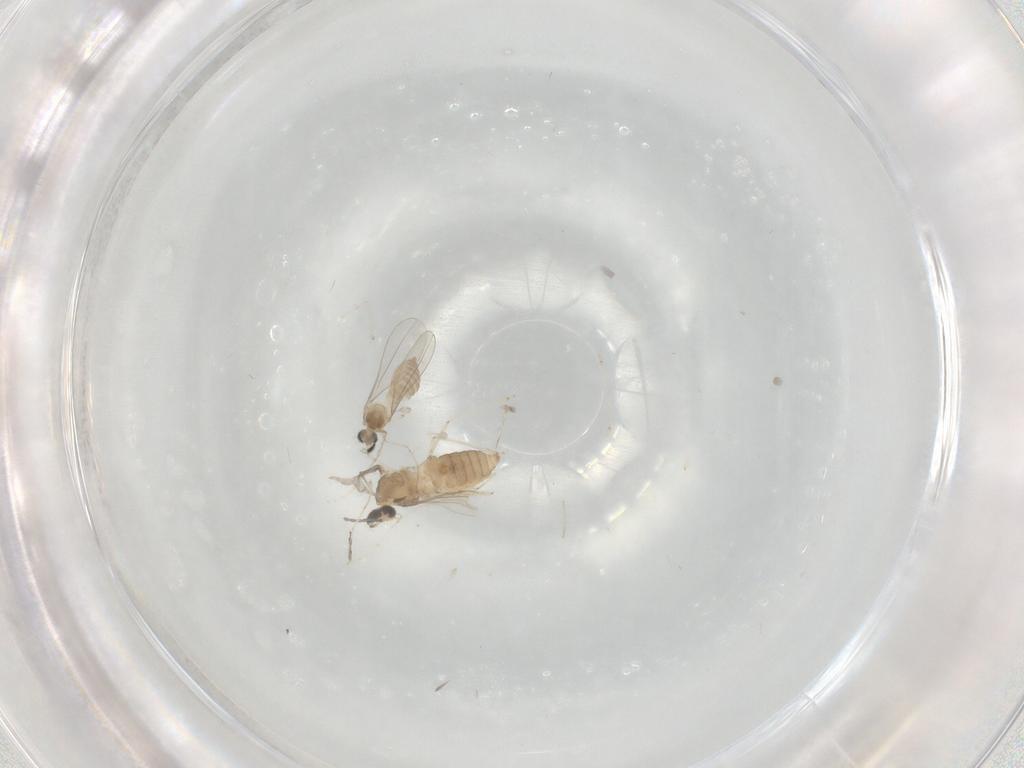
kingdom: Animalia
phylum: Arthropoda
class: Insecta
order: Diptera
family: Cecidomyiidae
